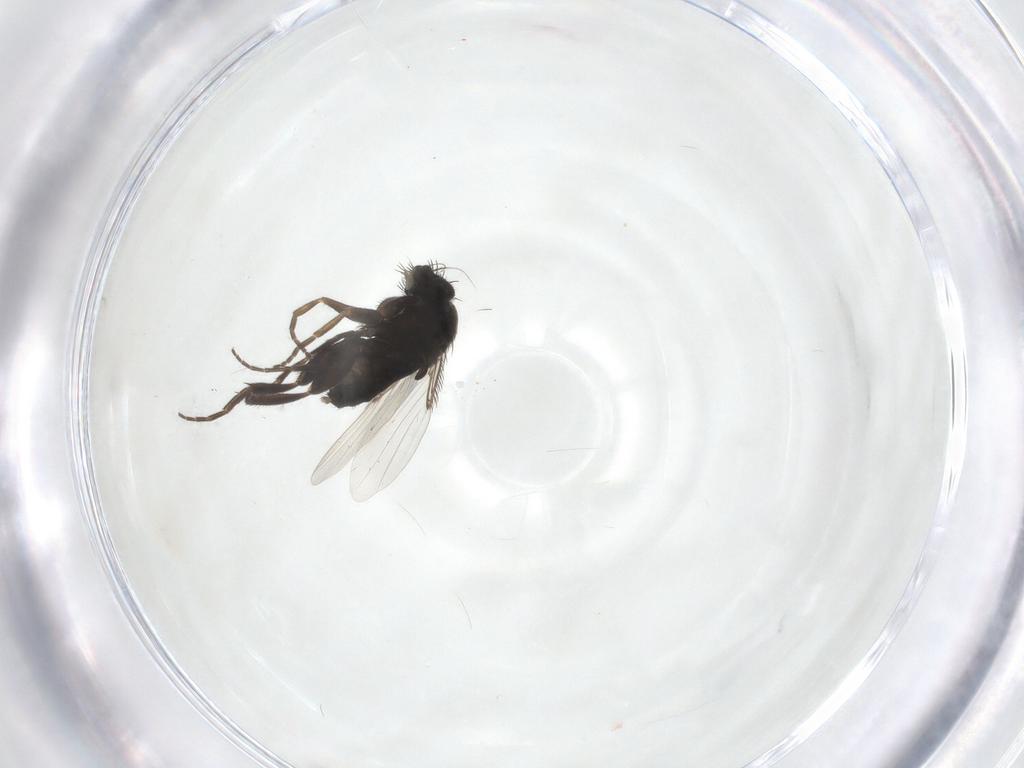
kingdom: Animalia
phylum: Arthropoda
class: Insecta
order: Diptera
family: Phoridae
